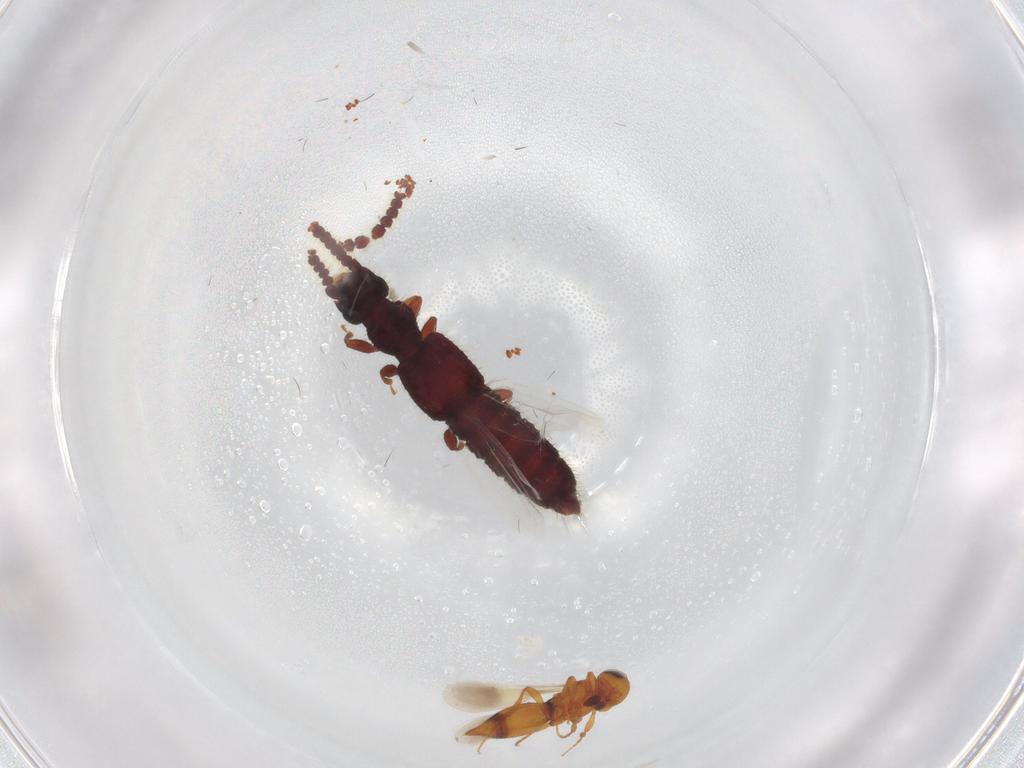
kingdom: Animalia
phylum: Arthropoda
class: Insecta
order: Hymenoptera
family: Platygastridae
